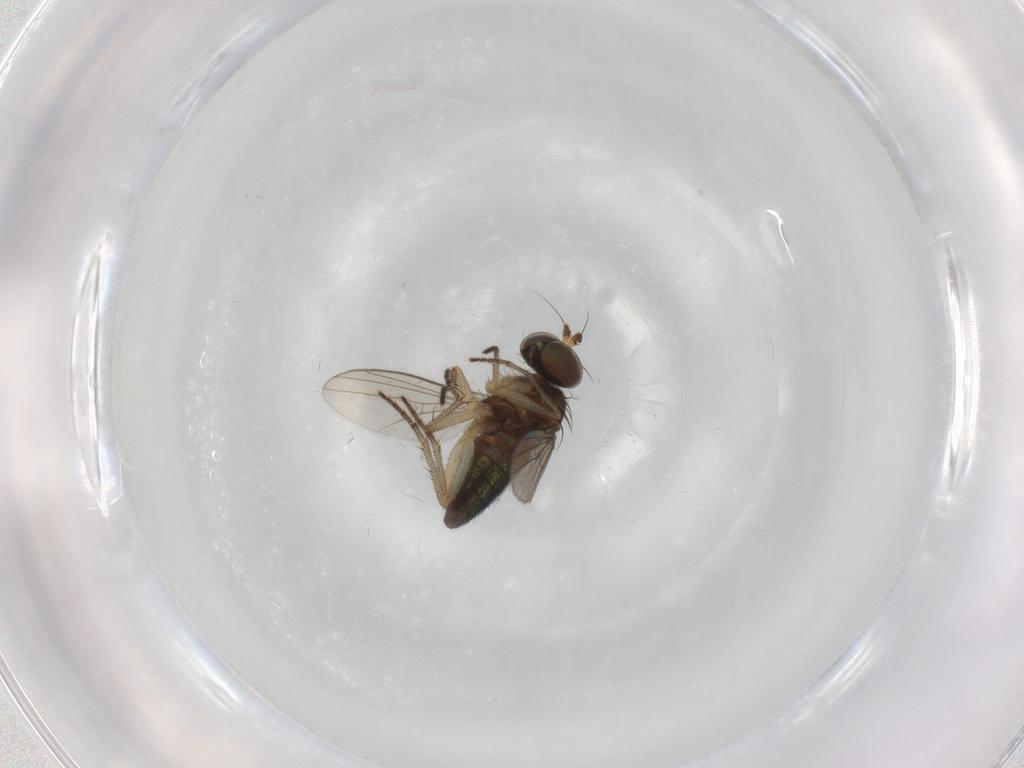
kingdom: Animalia
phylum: Arthropoda
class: Insecta
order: Diptera
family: Dolichopodidae
